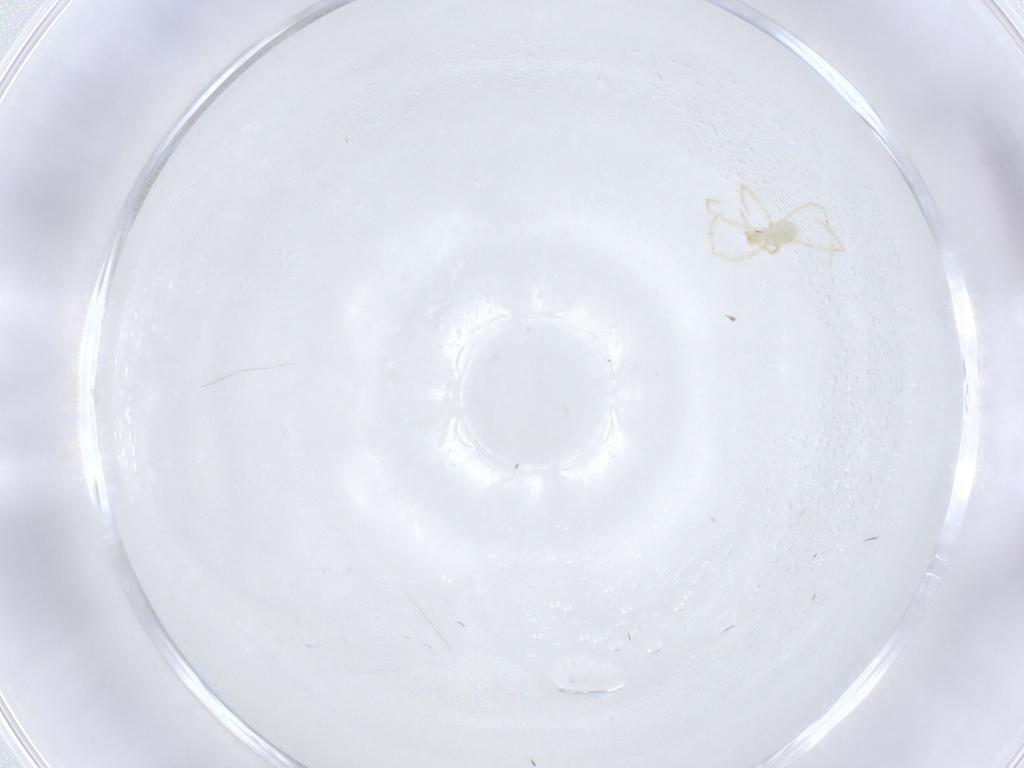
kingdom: Animalia
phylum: Arthropoda
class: Arachnida
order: Trombidiformes
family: Erythraeidae
